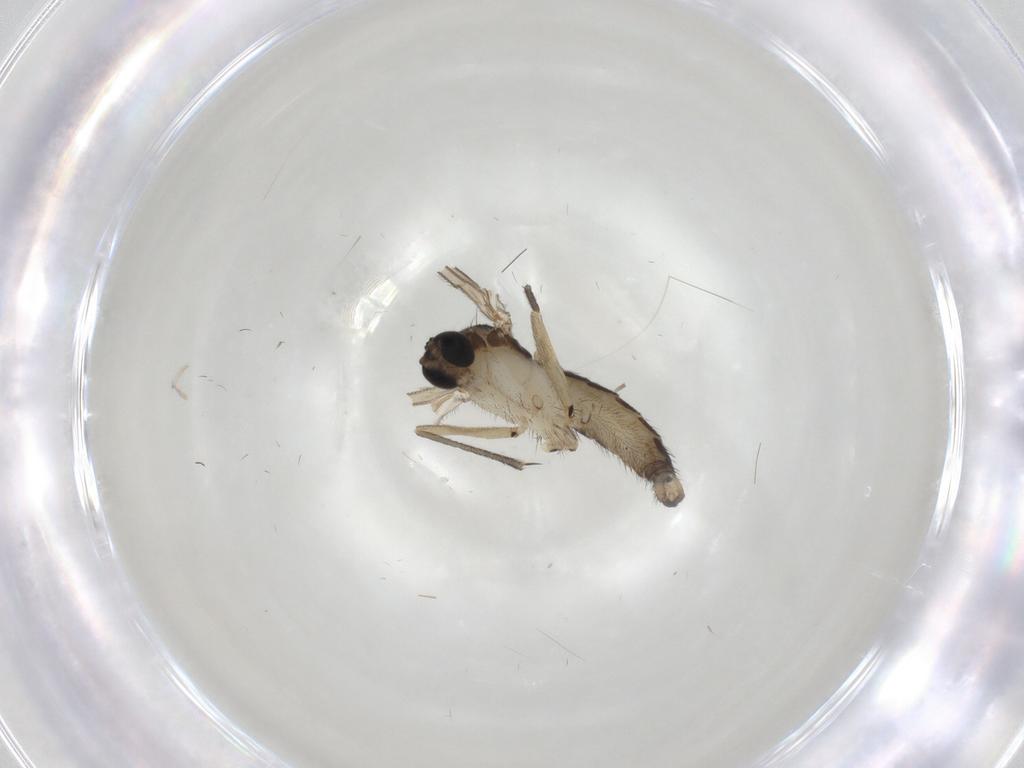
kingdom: Animalia
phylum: Arthropoda
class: Insecta
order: Diptera
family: Sciaridae
